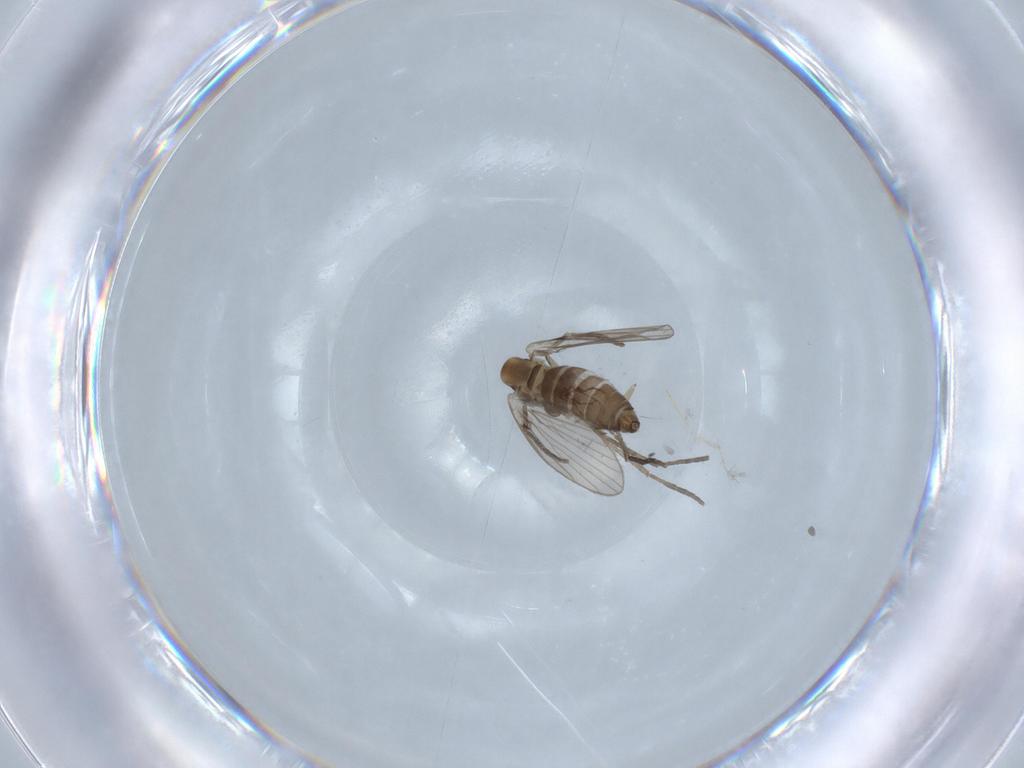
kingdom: Animalia
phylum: Arthropoda
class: Insecta
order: Diptera
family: Psychodidae
